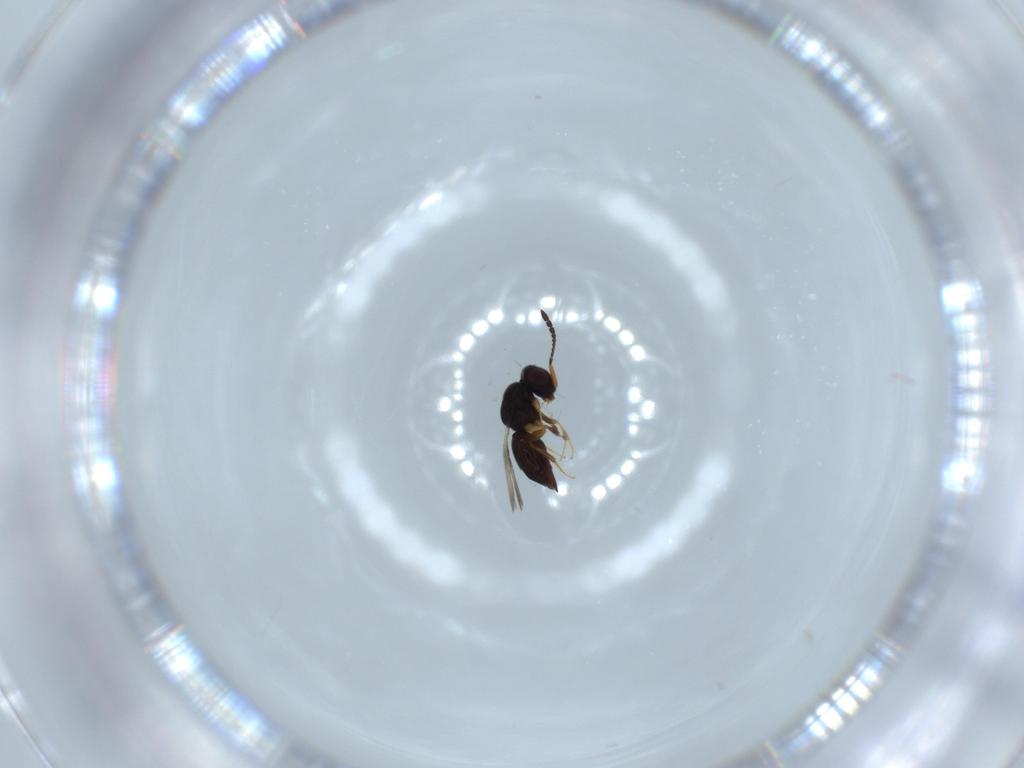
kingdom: Animalia
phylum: Arthropoda
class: Insecta
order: Hymenoptera
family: Ceraphronidae
